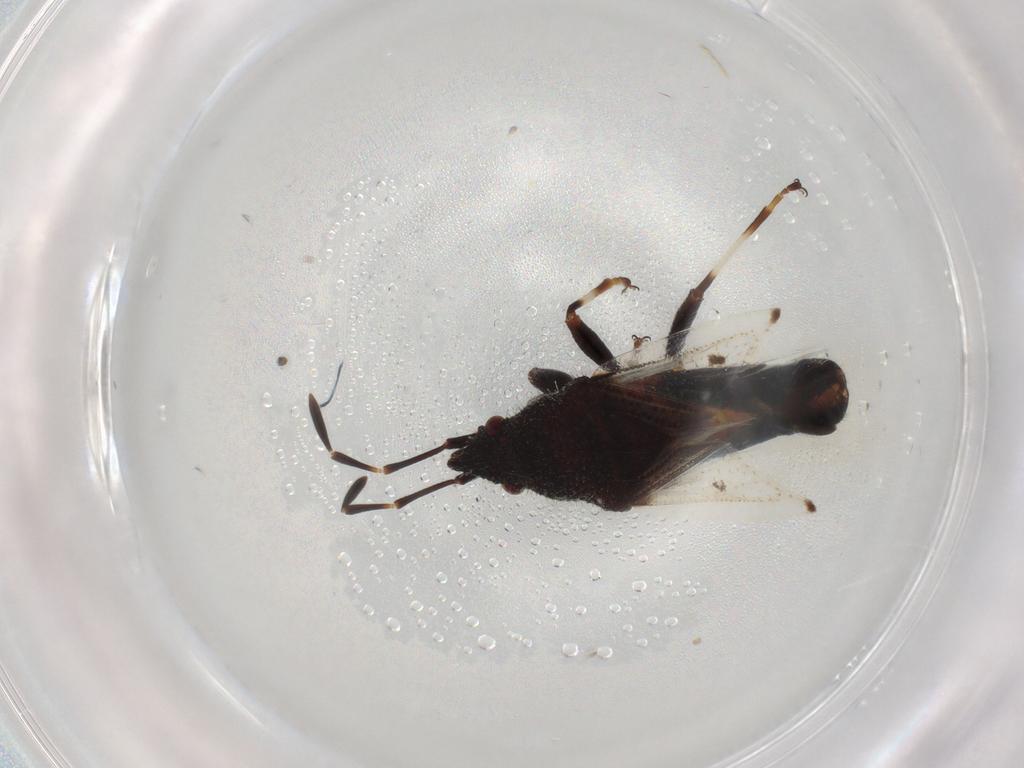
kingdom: Animalia
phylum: Arthropoda
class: Insecta
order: Hemiptera
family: Oxycarenidae
